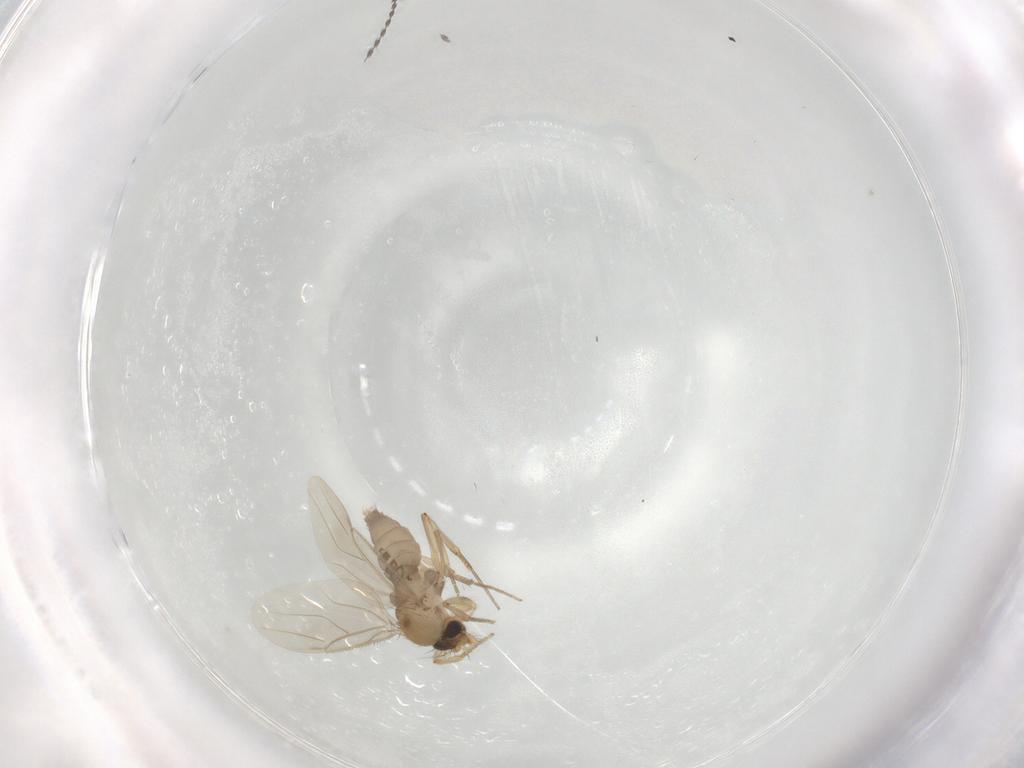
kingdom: Animalia
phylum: Arthropoda
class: Insecta
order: Diptera
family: Phoridae
